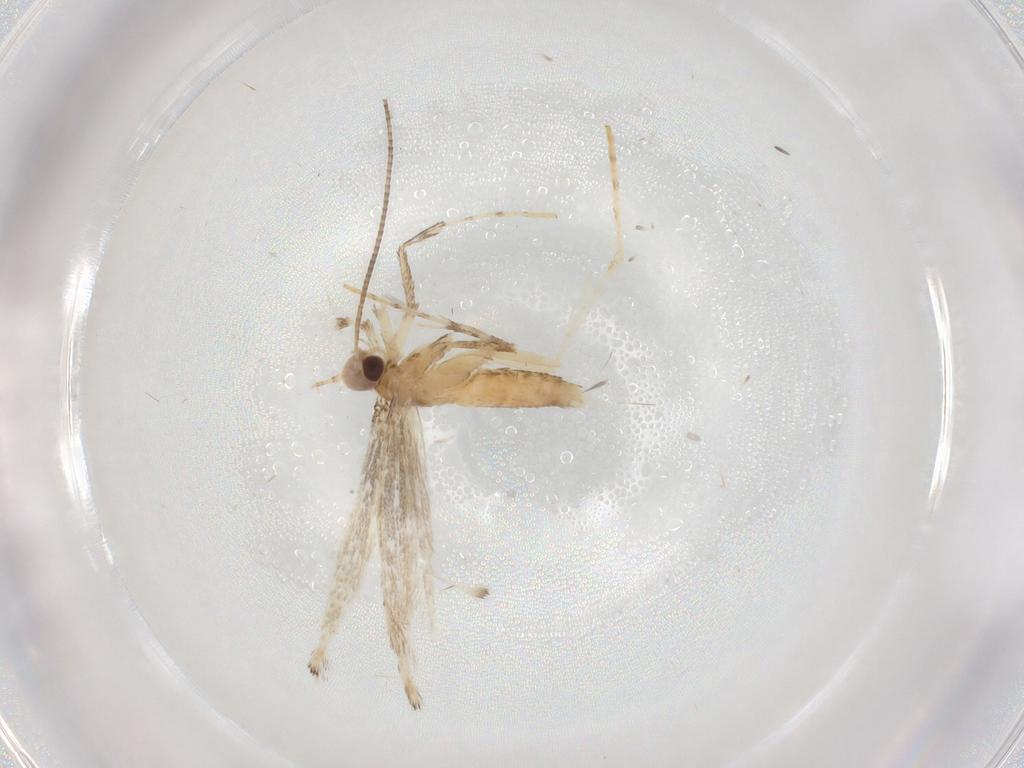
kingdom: Animalia
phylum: Arthropoda
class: Insecta
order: Lepidoptera
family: Gracillariidae
